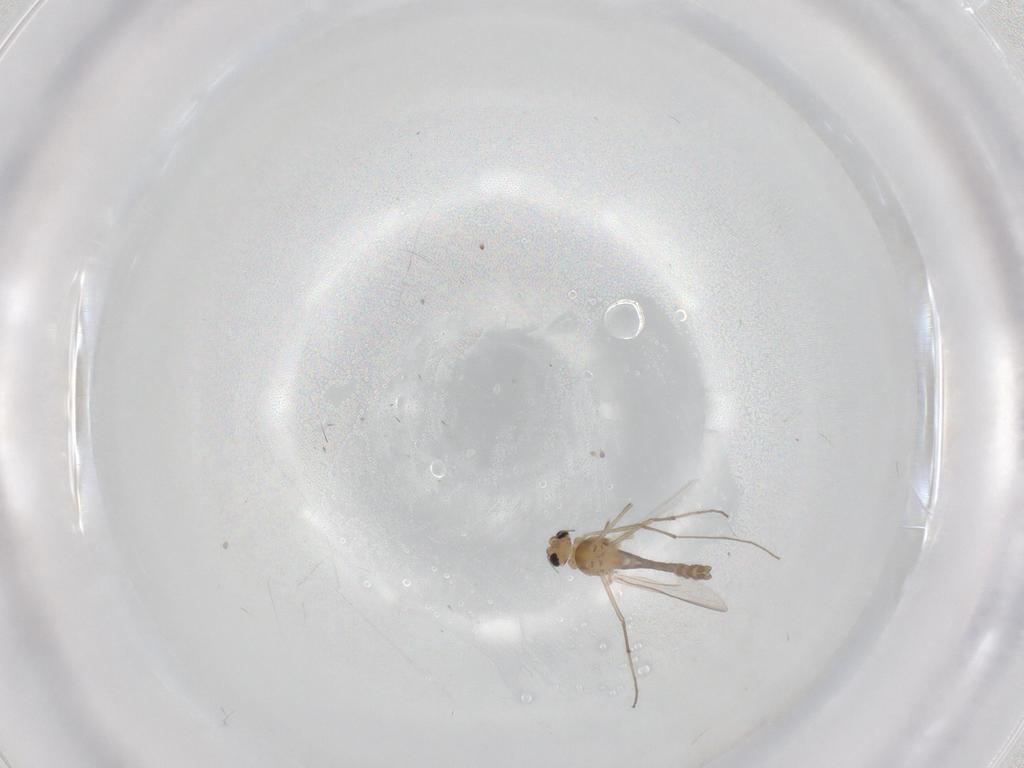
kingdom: Animalia
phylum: Arthropoda
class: Insecta
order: Diptera
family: Chironomidae
